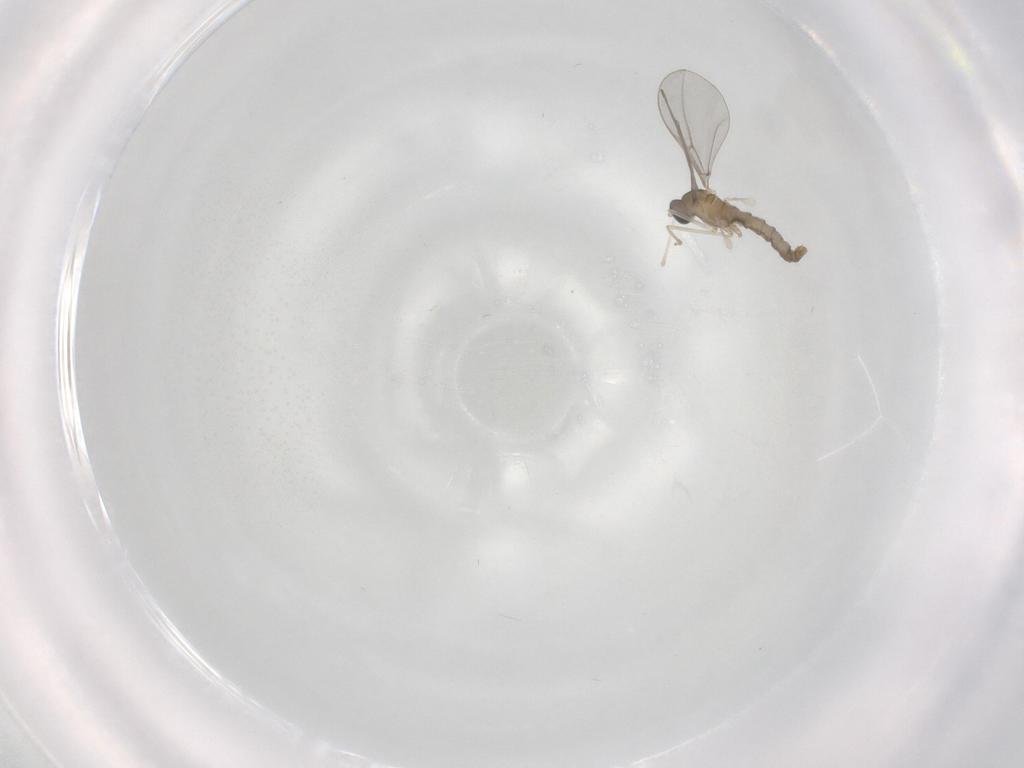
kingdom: Animalia
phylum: Arthropoda
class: Insecta
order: Diptera
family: Cecidomyiidae
